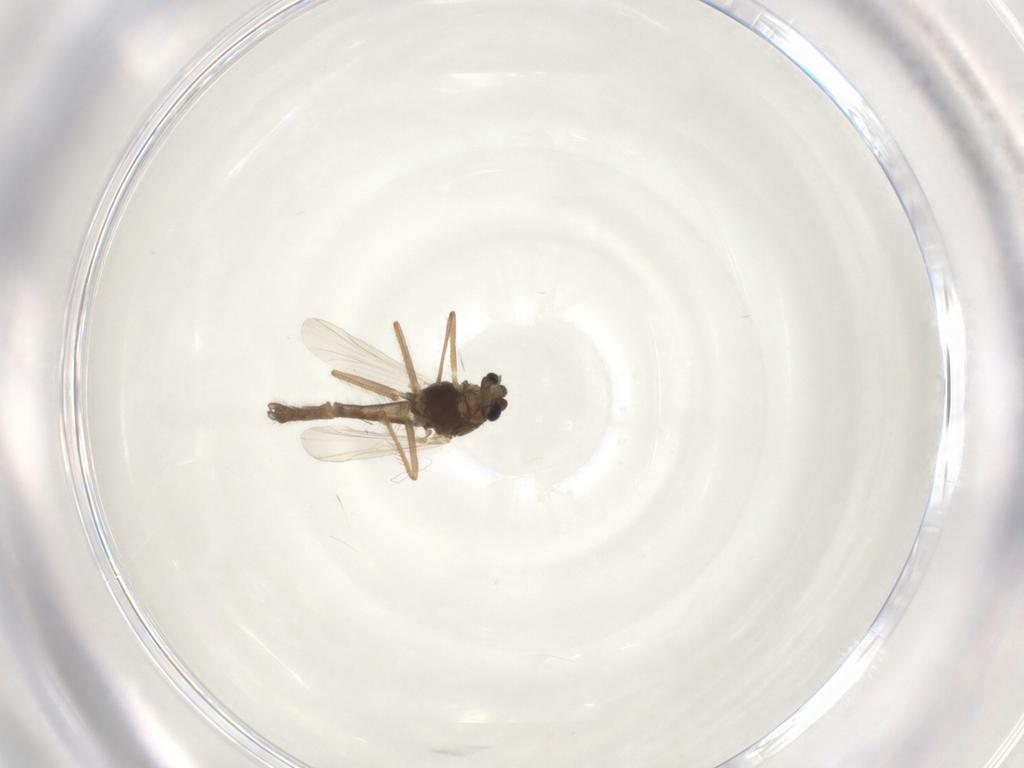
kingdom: Animalia
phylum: Arthropoda
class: Insecta
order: Diptera
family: Chironomidae
